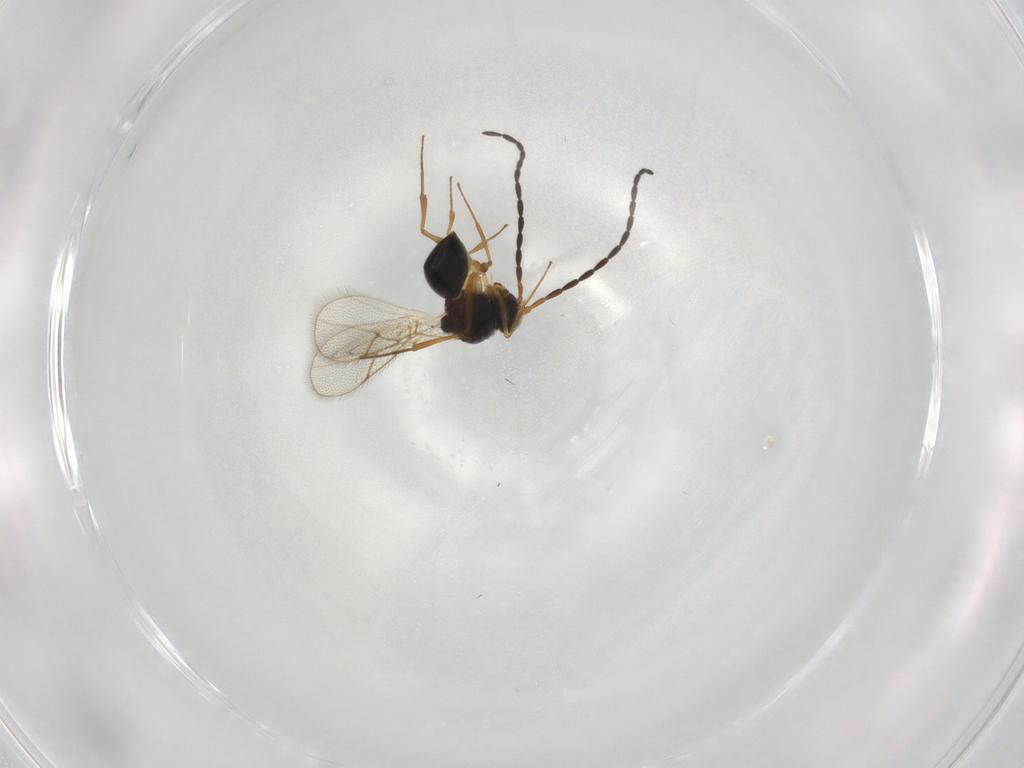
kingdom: Animalia
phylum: Arthropoda
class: Insecta
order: Hymenoptera
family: Figitidae
